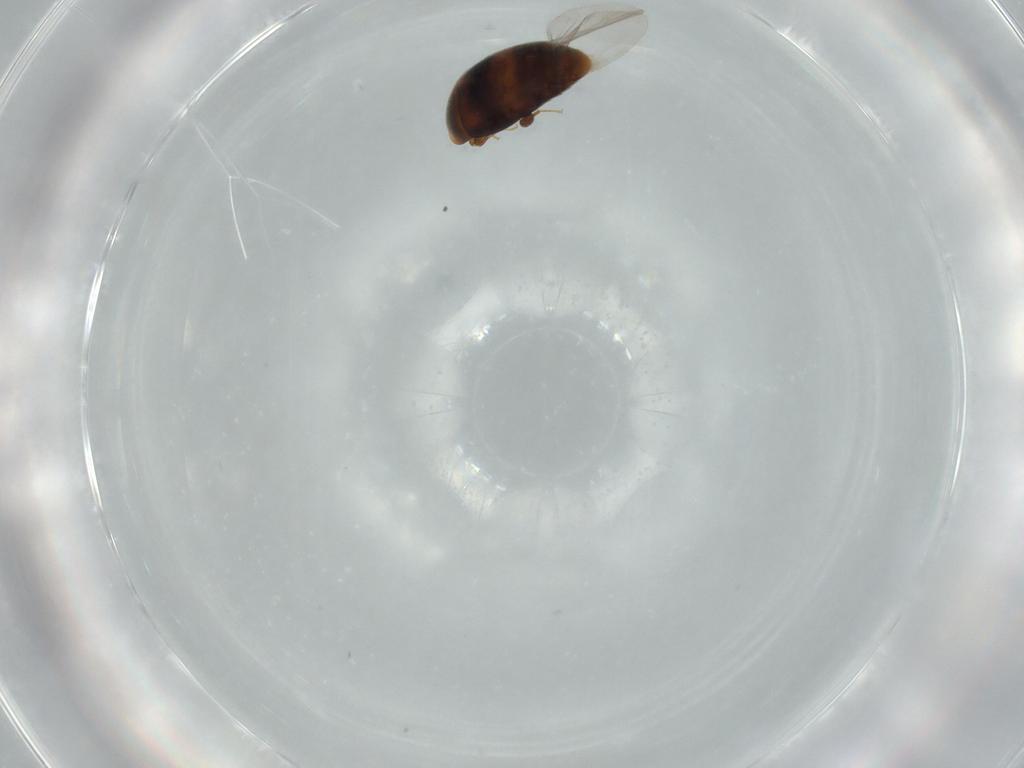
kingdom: Animalia
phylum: Arthropoda
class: Insecta
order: Coleoptera
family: Corylophidae
